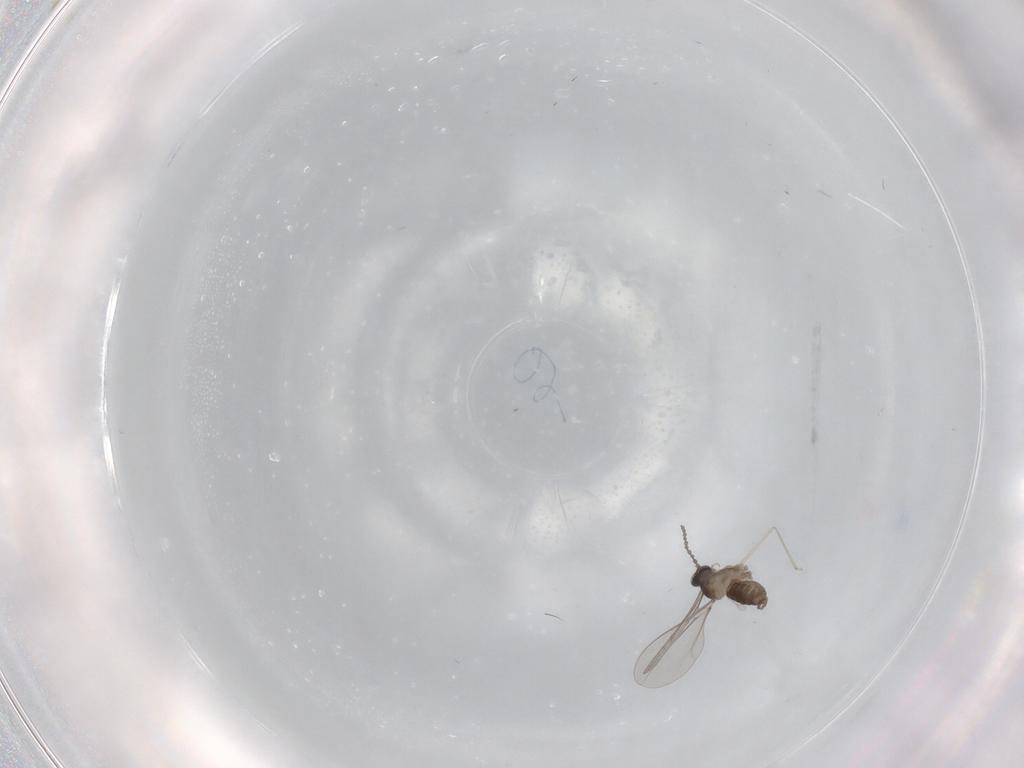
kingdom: Animalia
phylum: Arthropoda
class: Insecta
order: Diptera
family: Cecidomyiidae
